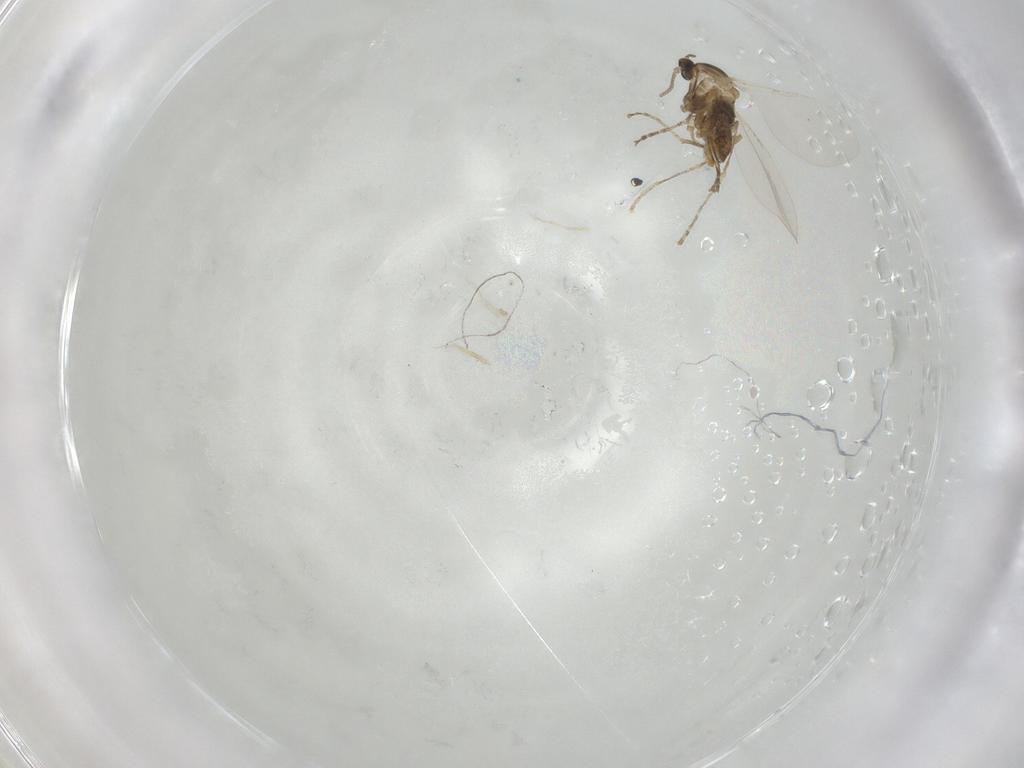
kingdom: Animalia
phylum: Arthropoda
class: Insecta
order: Diptera
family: Cecidomyiidae
